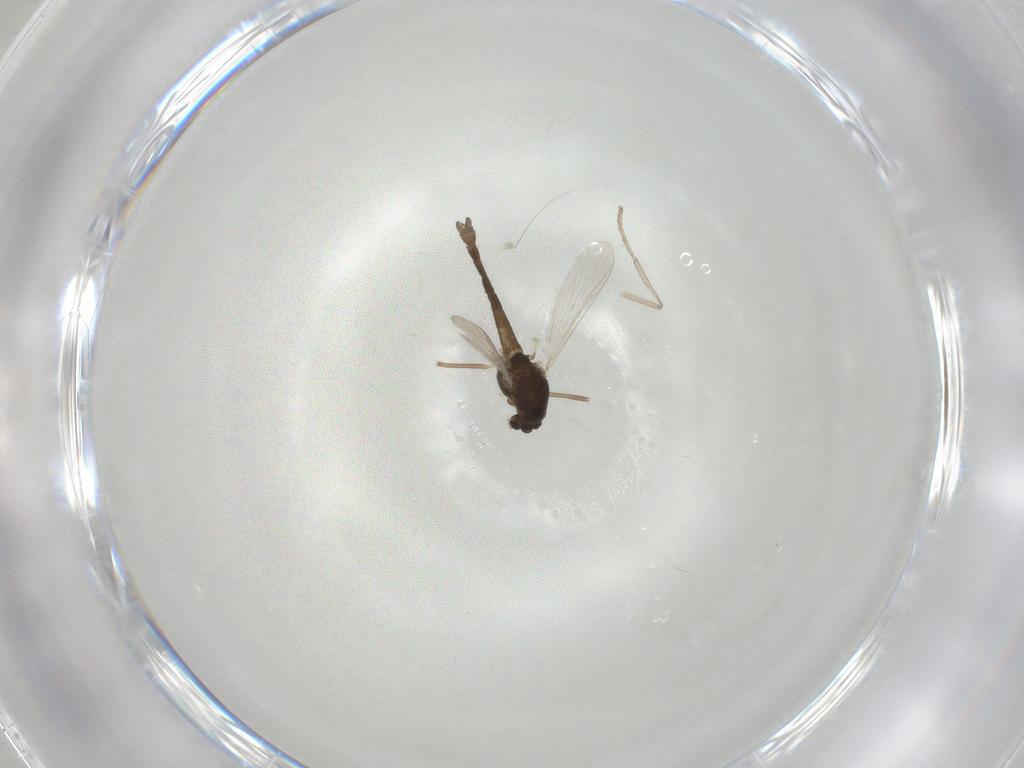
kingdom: Animalia
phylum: Arthropoda
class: Insecta
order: Diptera
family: Chironomidae
